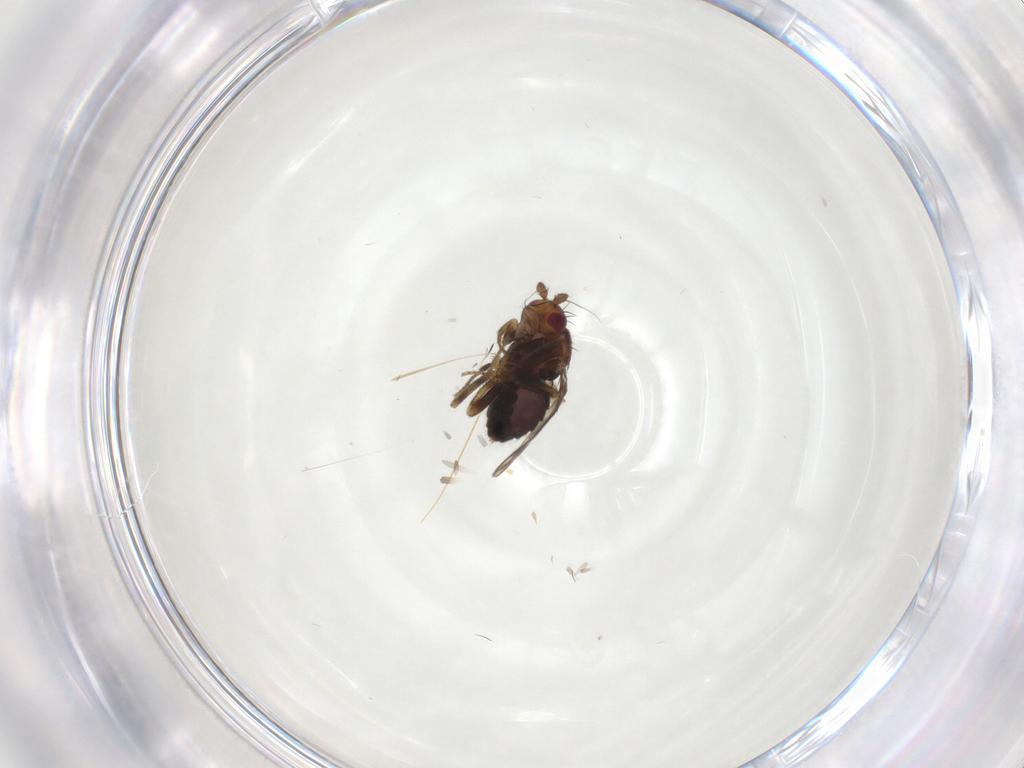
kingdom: Animalia
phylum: Arthropoda
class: Insecta
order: Diptera
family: Sphaeroceridae
